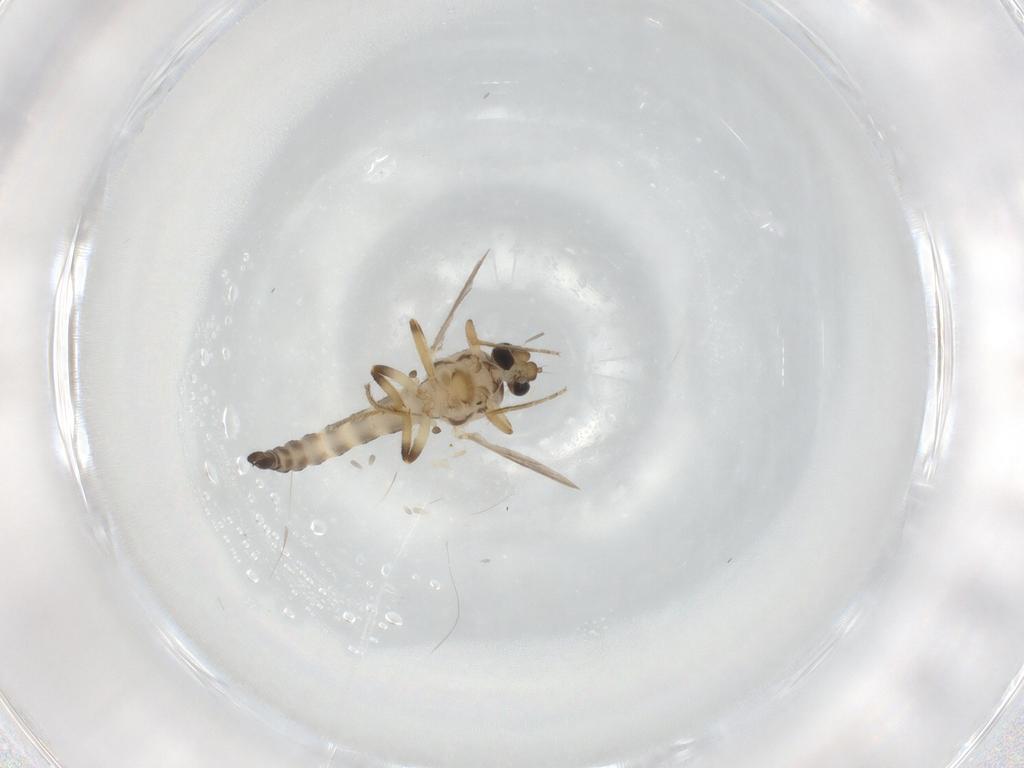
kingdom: Animalia
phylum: Arthropoda
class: Insecta
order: Diptera
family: Ceratopogonidae
